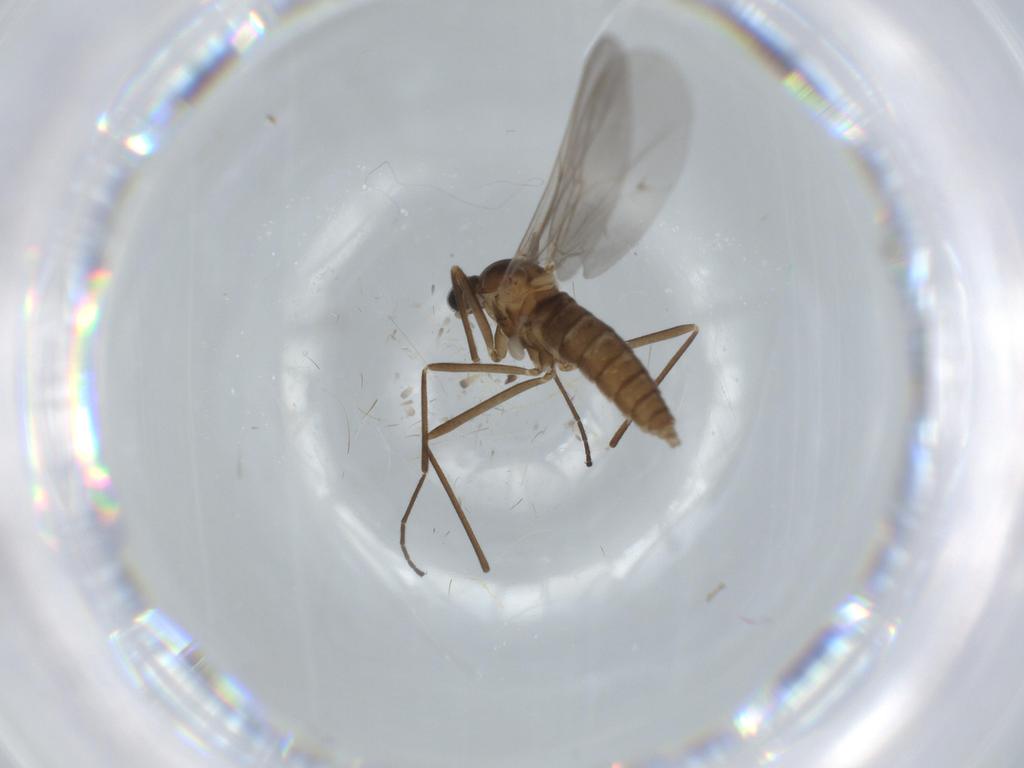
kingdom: Animalia
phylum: Arthropoda
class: Insecta
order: Diptera
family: Cecidomyiidae
